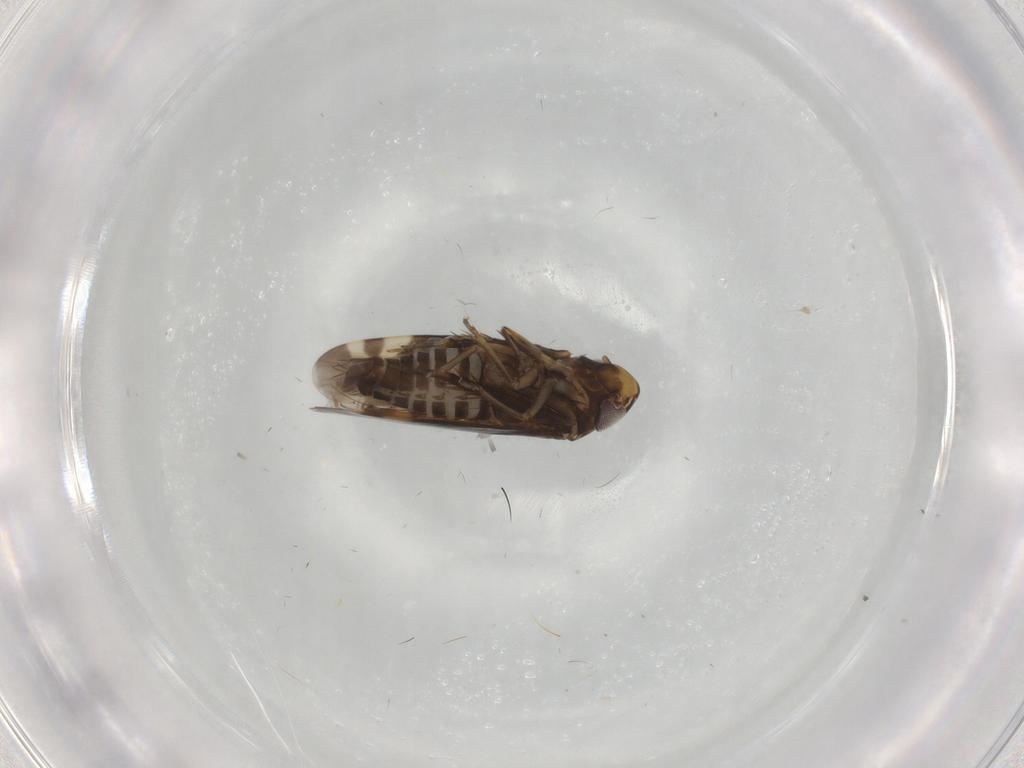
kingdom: Animalia
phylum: Arthropoda
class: Insecta
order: Hemiptera
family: Cicadellidae
